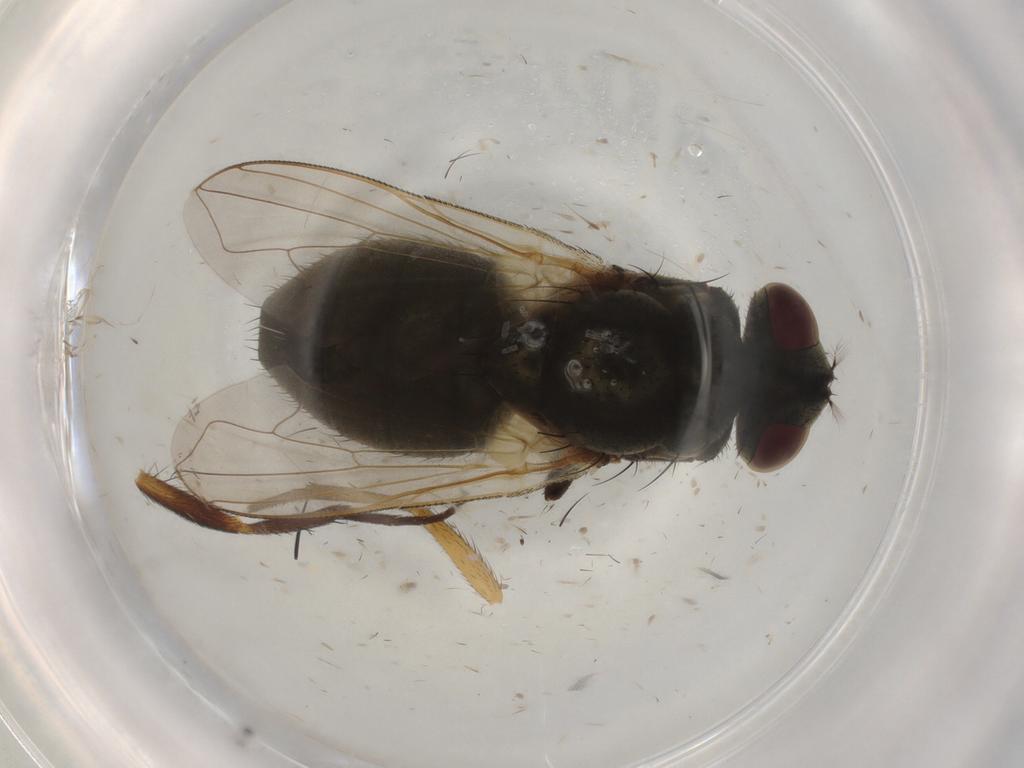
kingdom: Animalia
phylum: Arthropoda
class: Insecta
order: Diptera
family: Sarcophagidae
